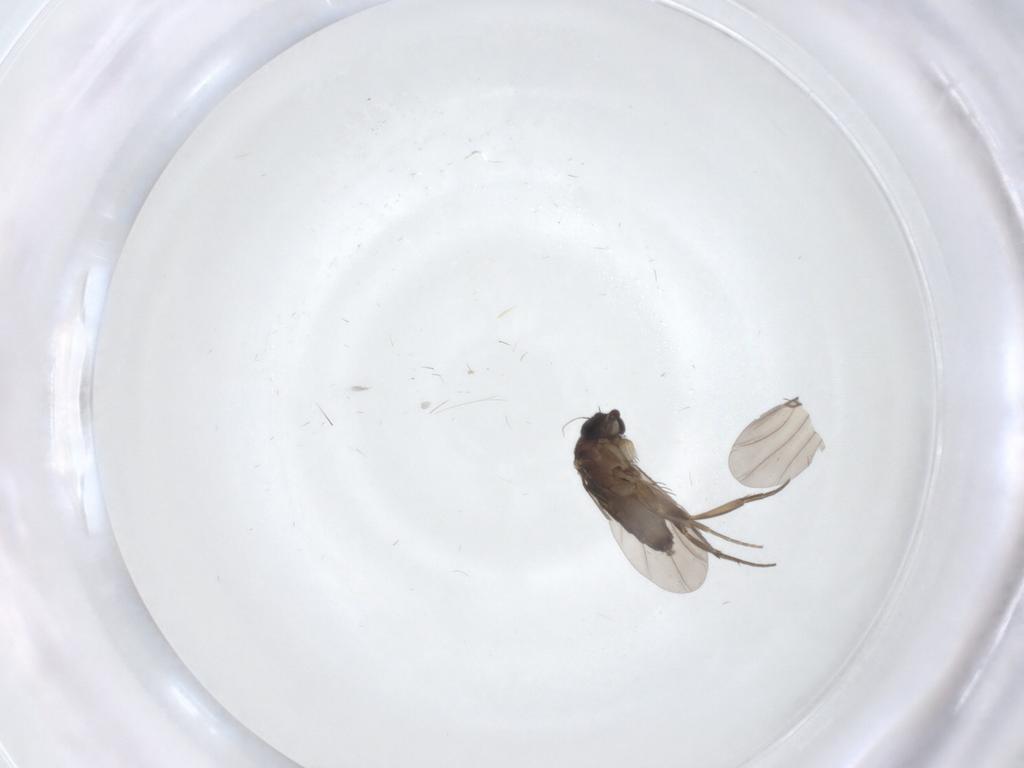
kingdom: Animalia
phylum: Arthropoda
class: Insecta
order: Diptera
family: Phoridae
